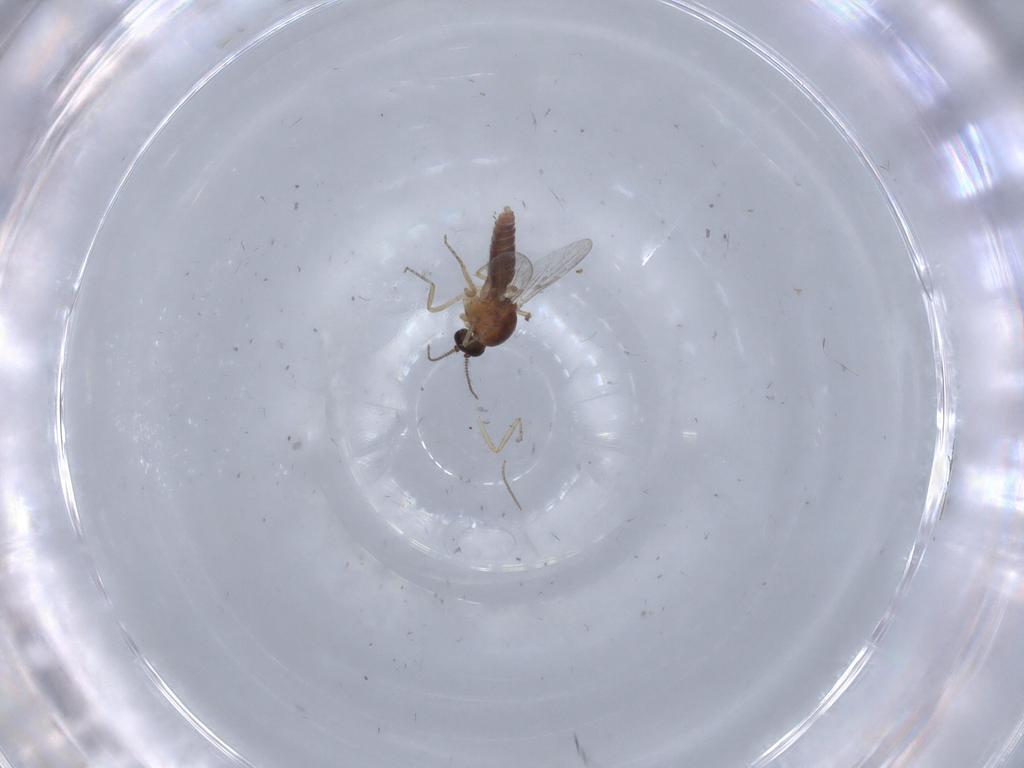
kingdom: Animalia
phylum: Arthropoda
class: Insecta
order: Diptera
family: Ceratopogonidae
